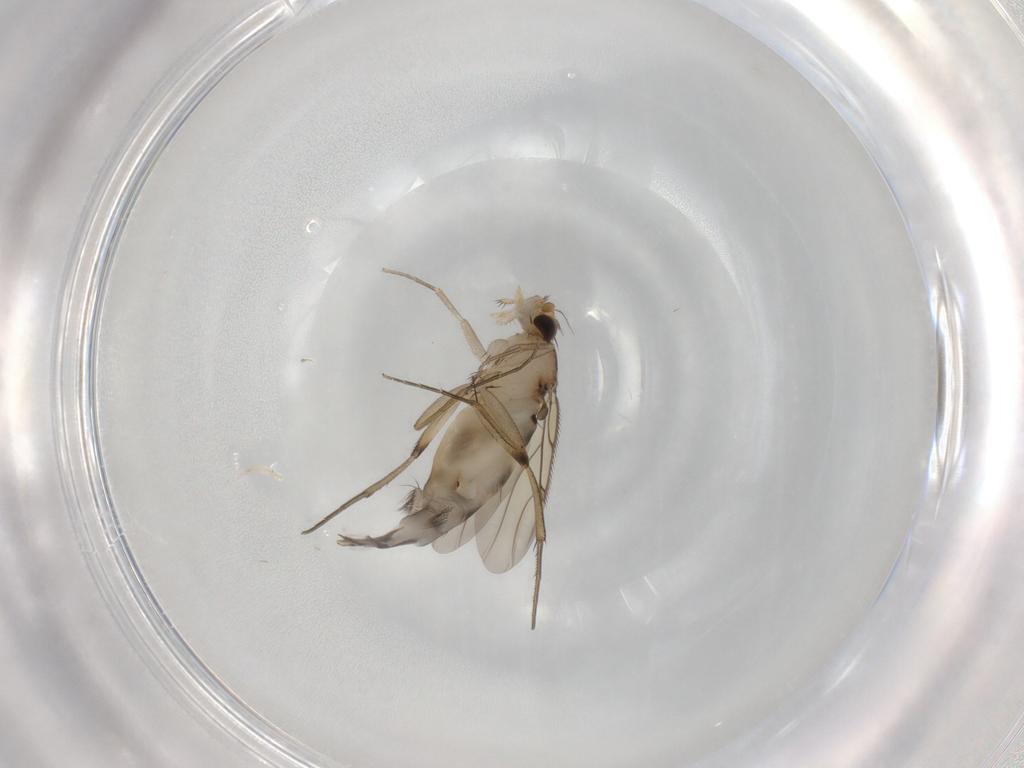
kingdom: Animalia
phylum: Arthropoda
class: Insecta
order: Diptera
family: Phoridae
